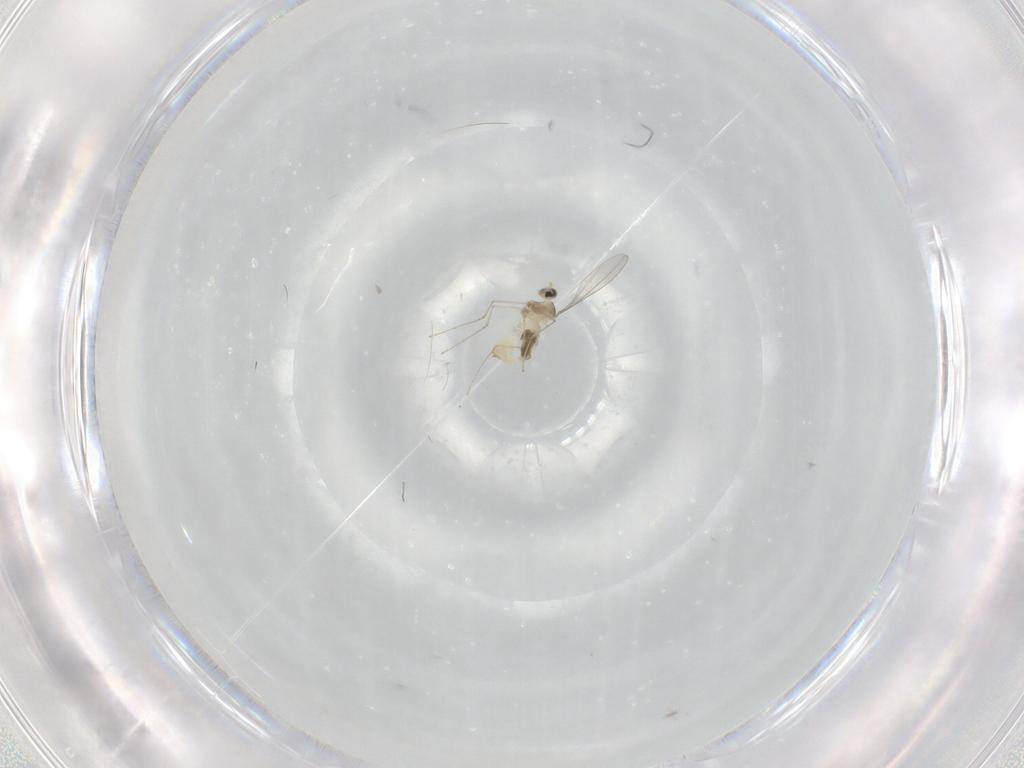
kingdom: Animalia
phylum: Arthropoda
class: Insecta
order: Diptera
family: Cecidomyiidae
